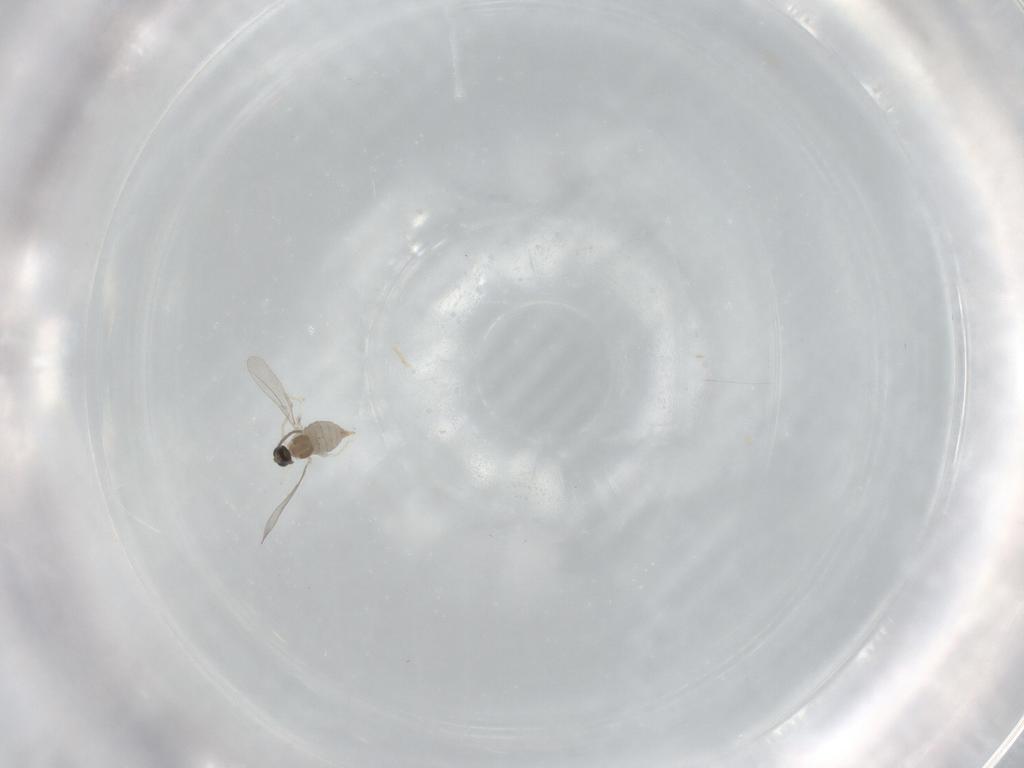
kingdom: Animalia
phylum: Arthropoda
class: Insecta
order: Diptera
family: Cecidomyiidae
